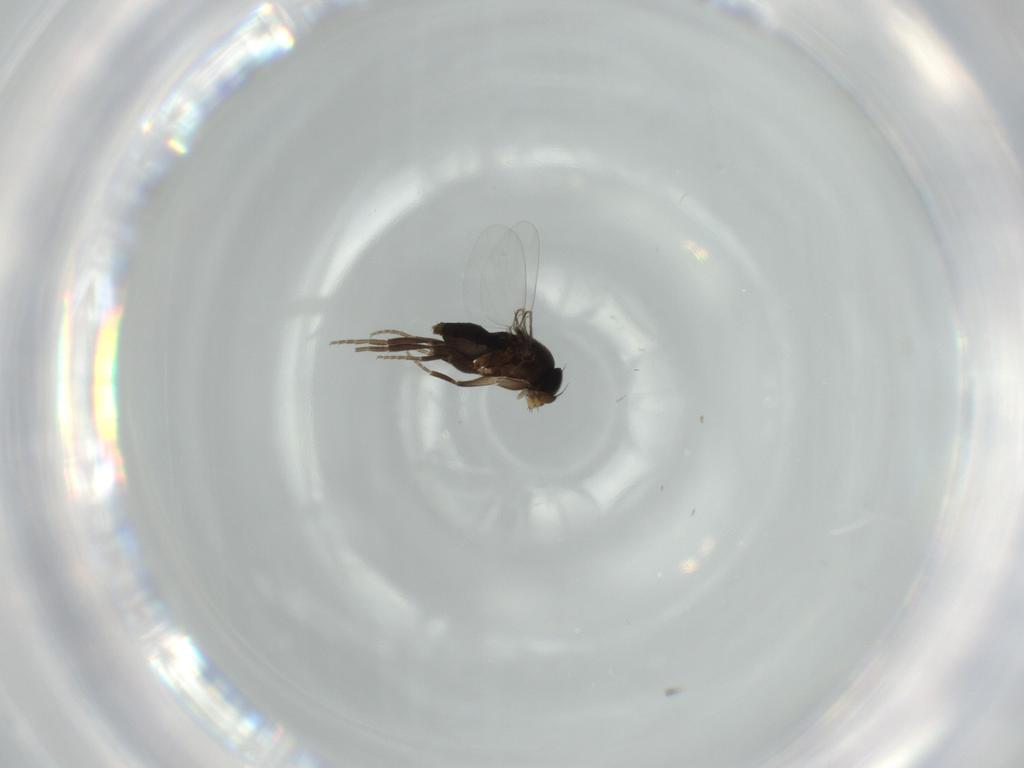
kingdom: Animalia
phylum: Arthropoda
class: Insecta
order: Diptera
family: Phoridae
